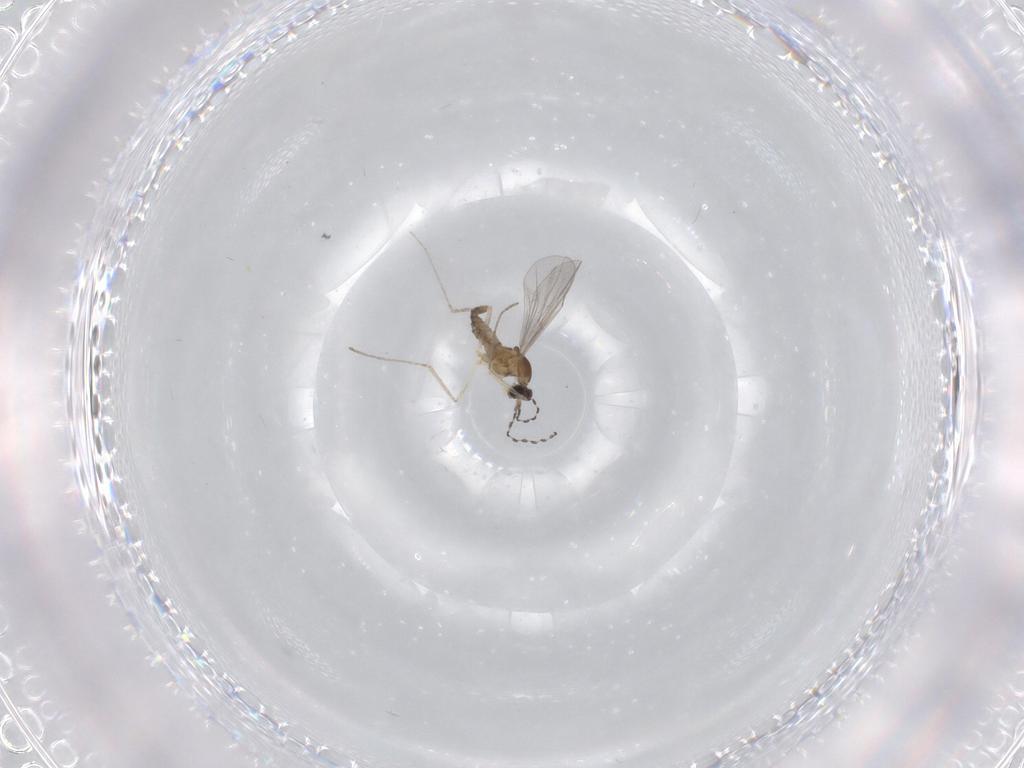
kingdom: Animalia
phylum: Arthropoda
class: Insecta
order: Diptera
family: Cecidomyiidae
